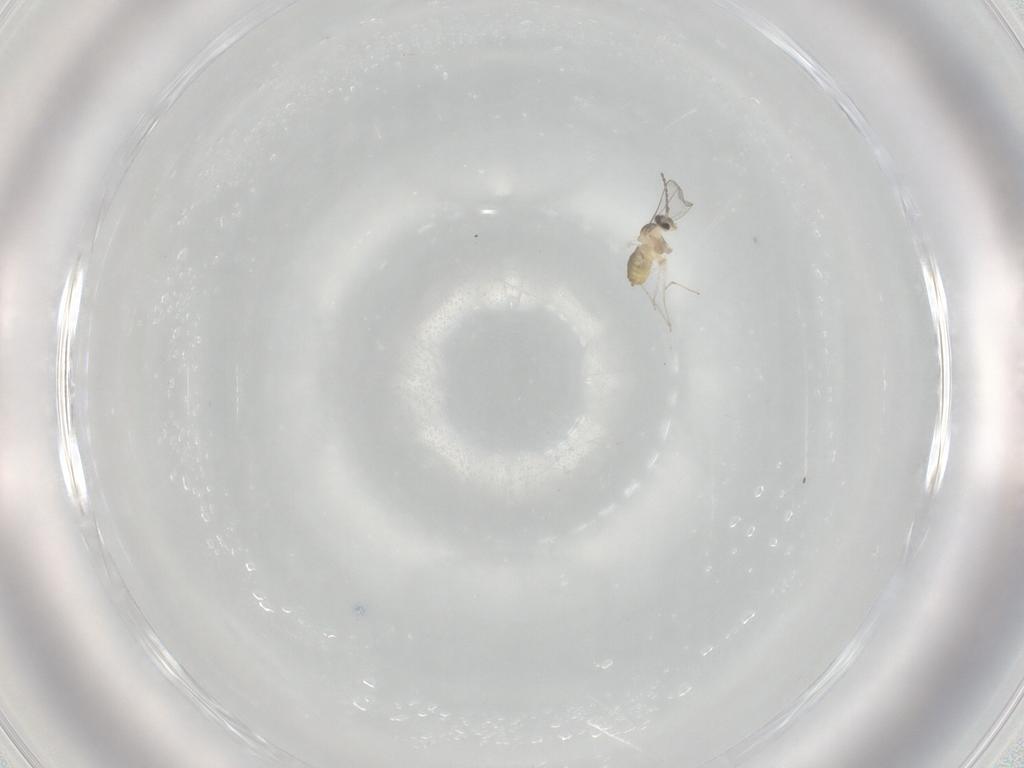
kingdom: Animalia
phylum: Arthropoda
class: Insecta
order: Diptera
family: Cecidomyiidae
